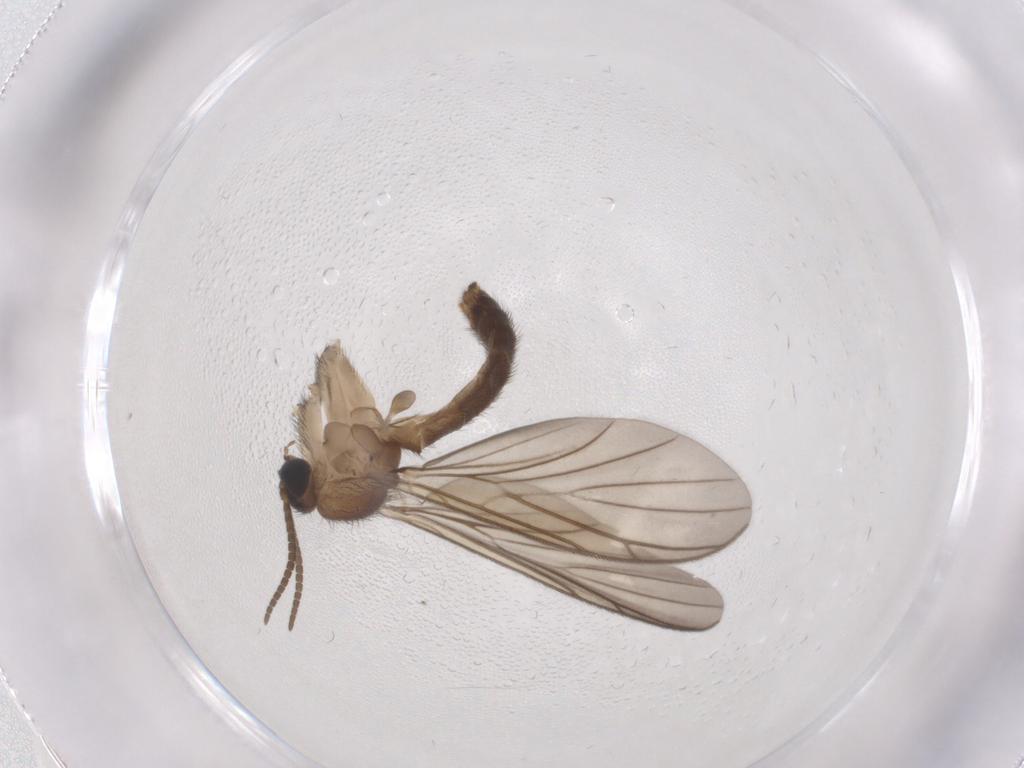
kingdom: Animalia
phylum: Arthropoda
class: Insecta
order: Diptera
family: Keroplatidae
